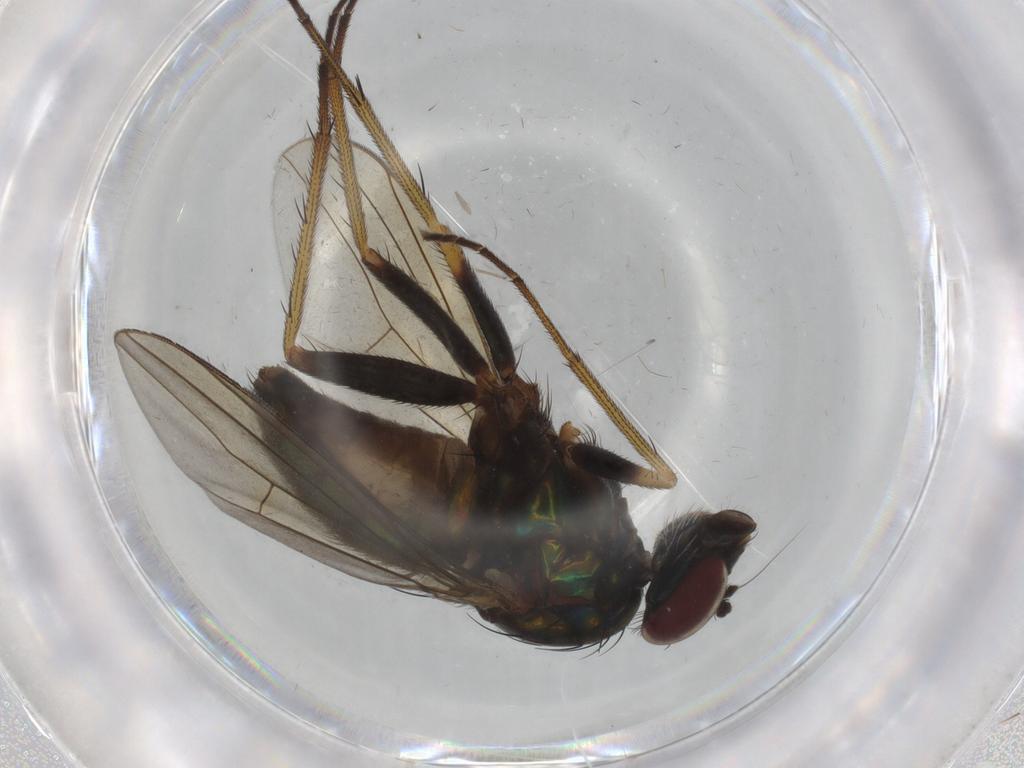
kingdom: Animalia
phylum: Arthropoda
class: Insecta
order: Diptera
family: Dolichopodidae
